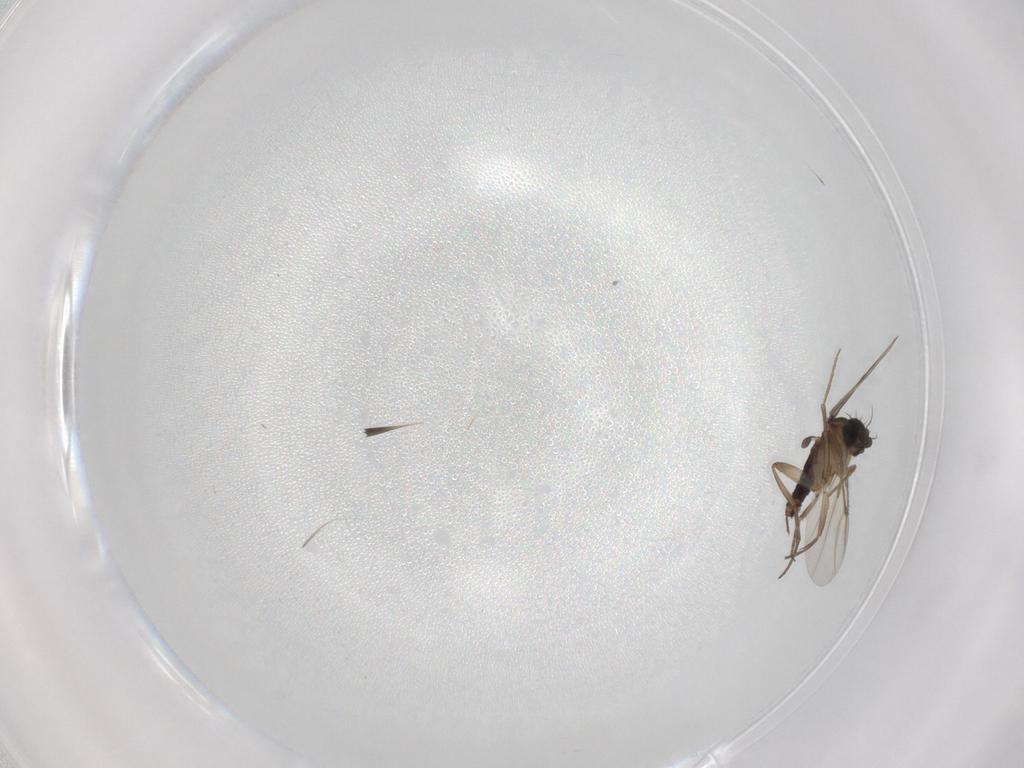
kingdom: Animalia
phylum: Arthropoda
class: Insecta
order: Diptera
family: Phoridae
